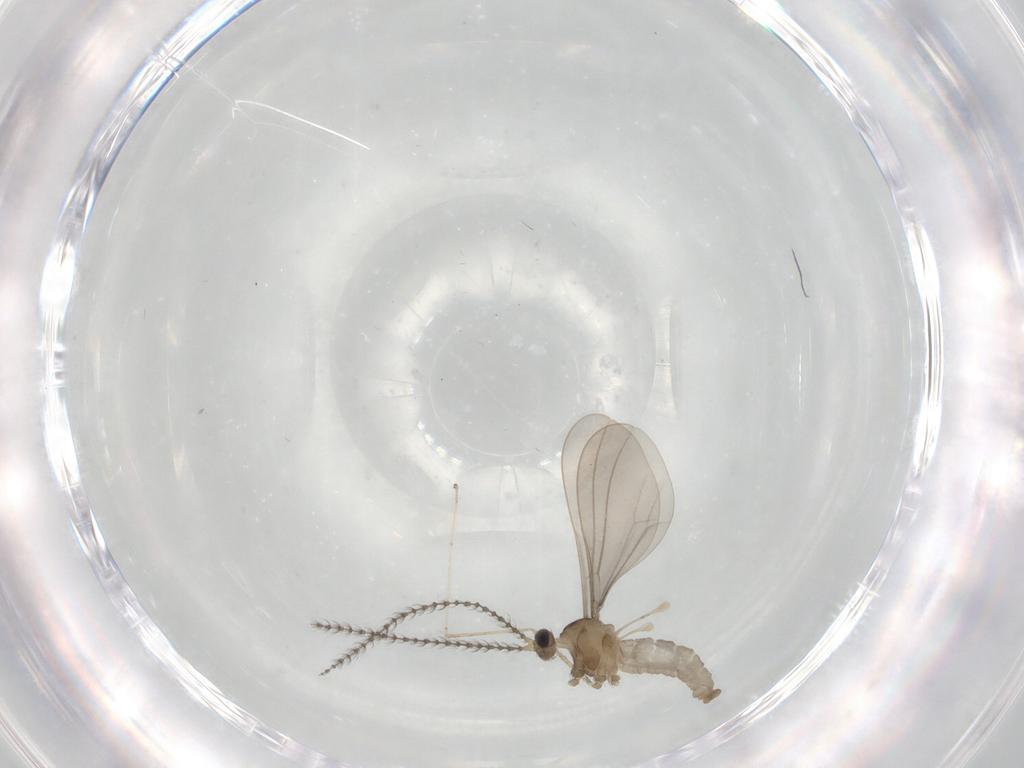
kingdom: Animalia
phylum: Arthropoda
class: Insecta
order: Diptera
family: Cecidomyiidae
